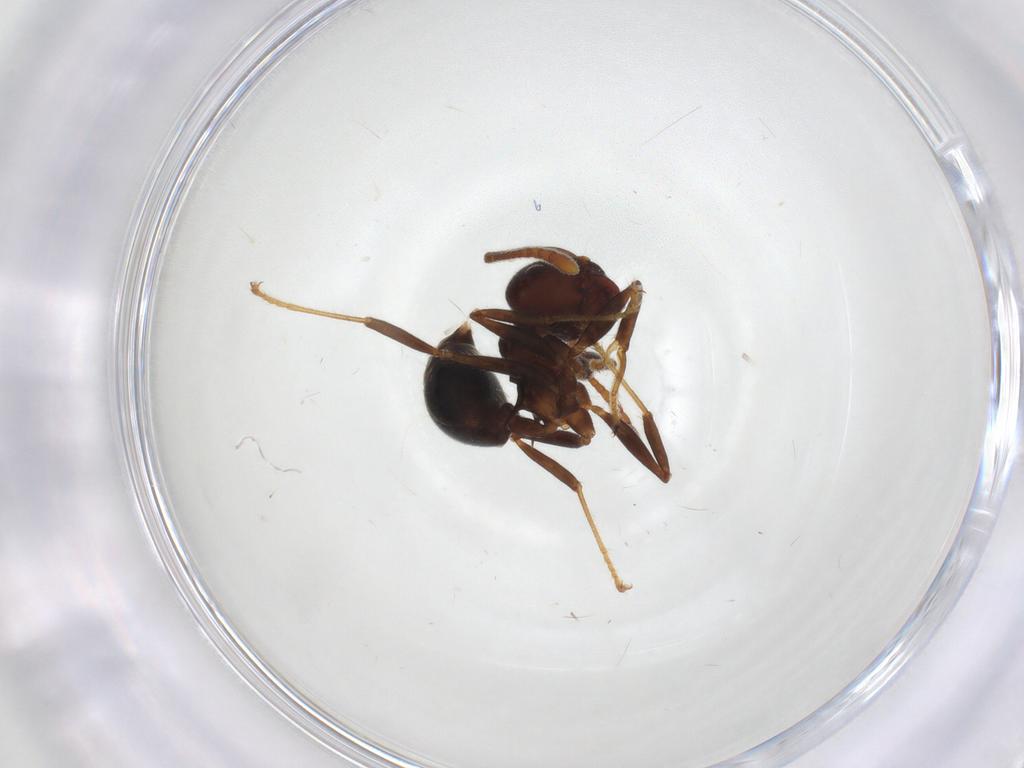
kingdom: Animalia
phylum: Arthropoda
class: Insecta
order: Hymenoptera
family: Formicidae
